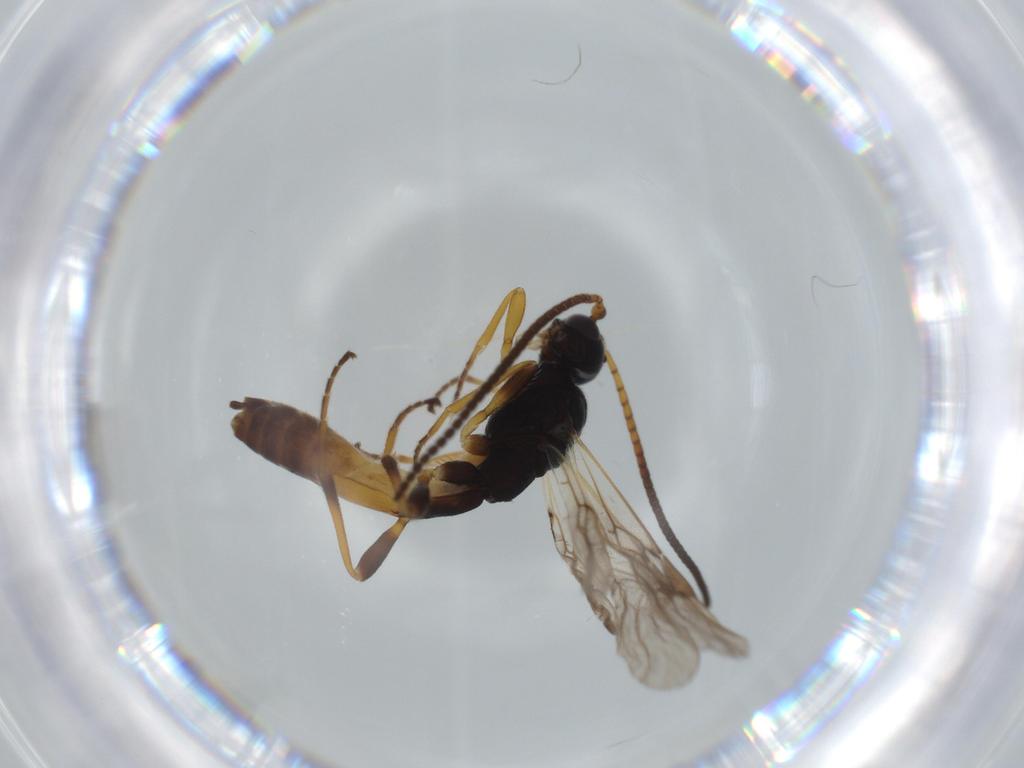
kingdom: Animalia
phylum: Arthropoda
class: Insecta
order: Hymenoptera
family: Braconidae
